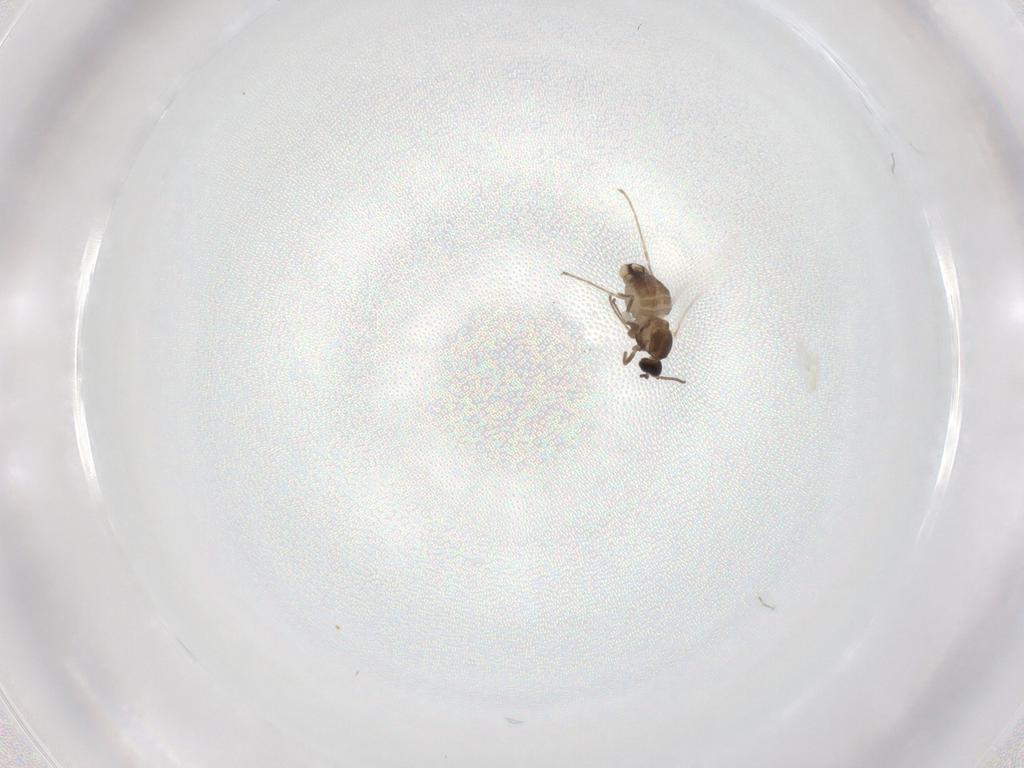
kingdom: Animalia
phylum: Arthropoda
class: Insecta
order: Diptera
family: Cecidomyiidae
